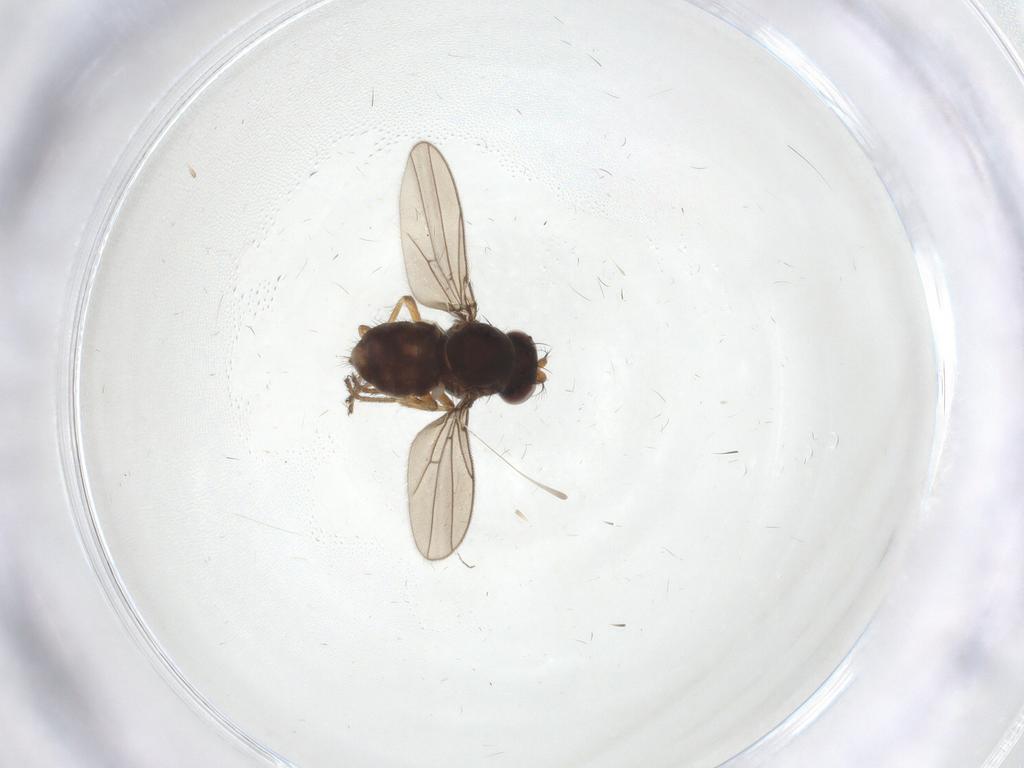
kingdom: Animalia
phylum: Arthropoda
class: Insecta
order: Diptera
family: Ephydridae
